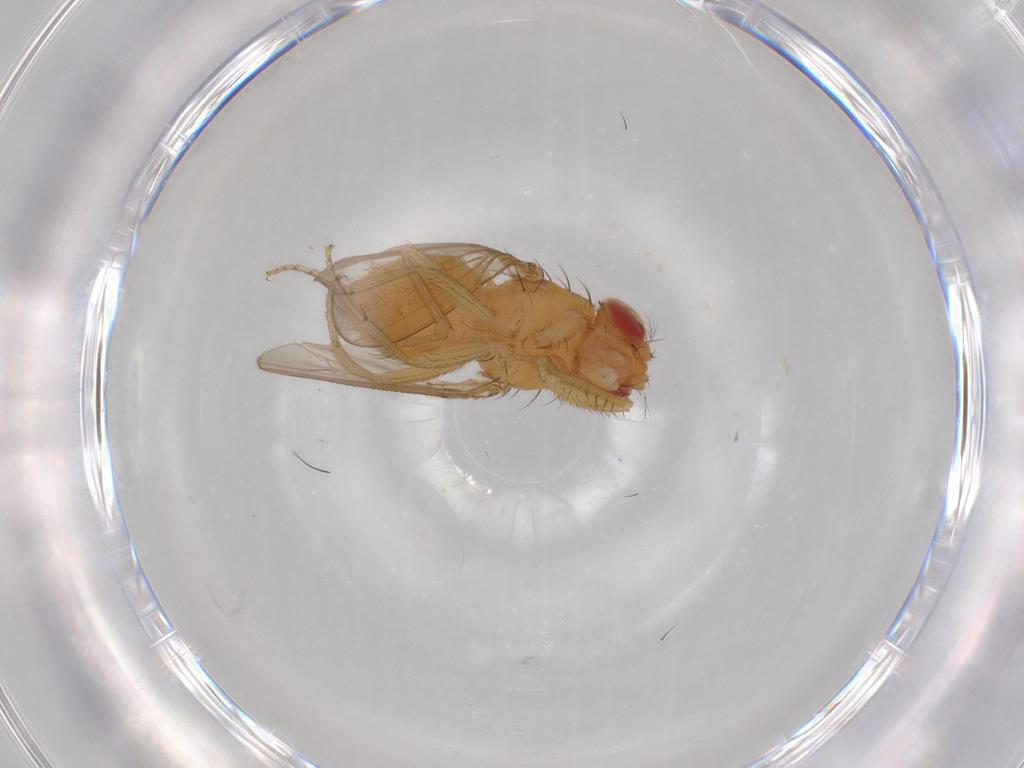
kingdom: Animalia
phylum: Arthropoda
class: Insecta
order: Diptera
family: Drosophilidae
